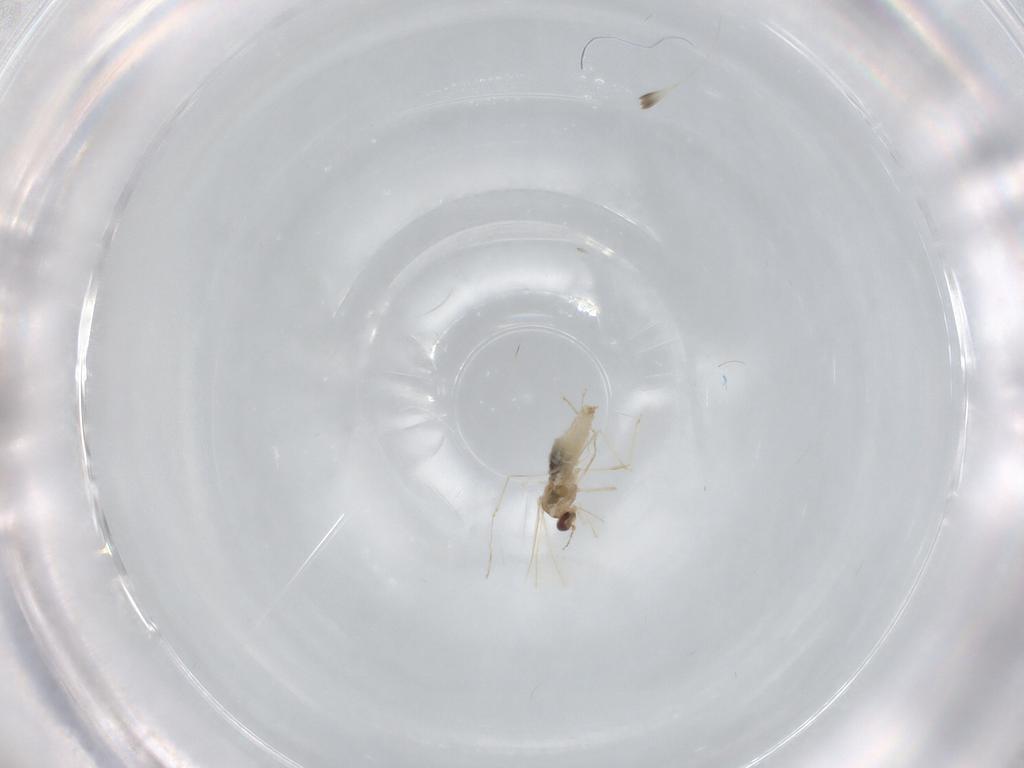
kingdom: Animalia
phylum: Arthropoda
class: Insecta
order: Diptera
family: Cecidomyiidae
